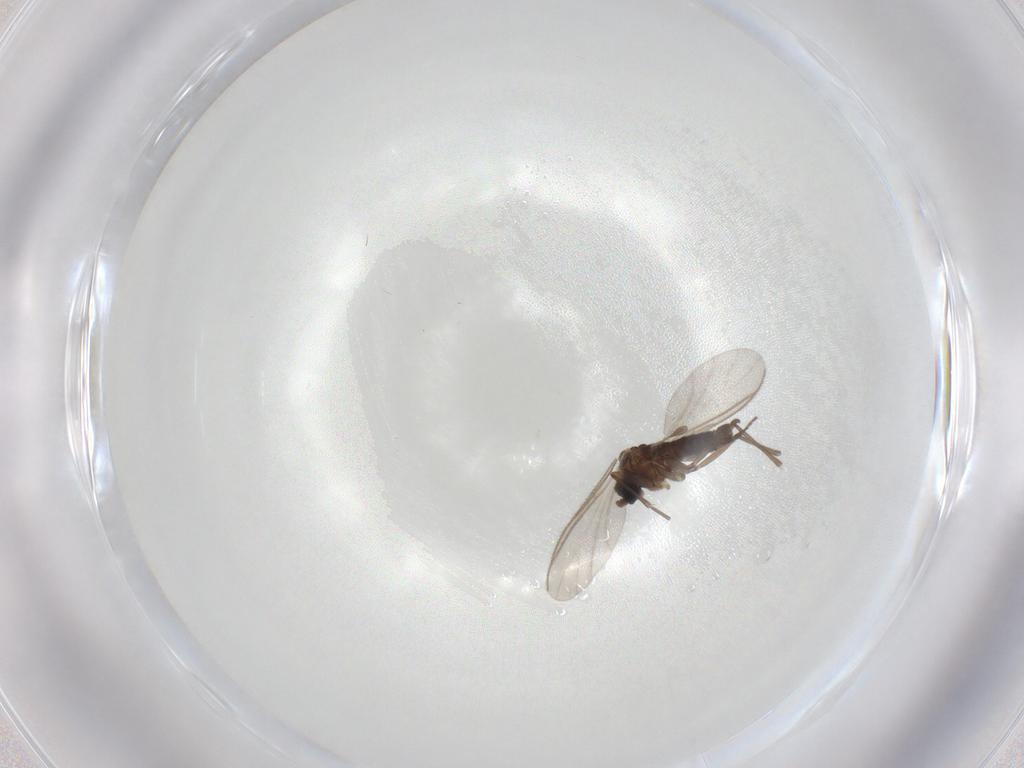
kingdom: Animalia
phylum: Arthropoda
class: Insecta
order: Diptera
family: Sciaridae
